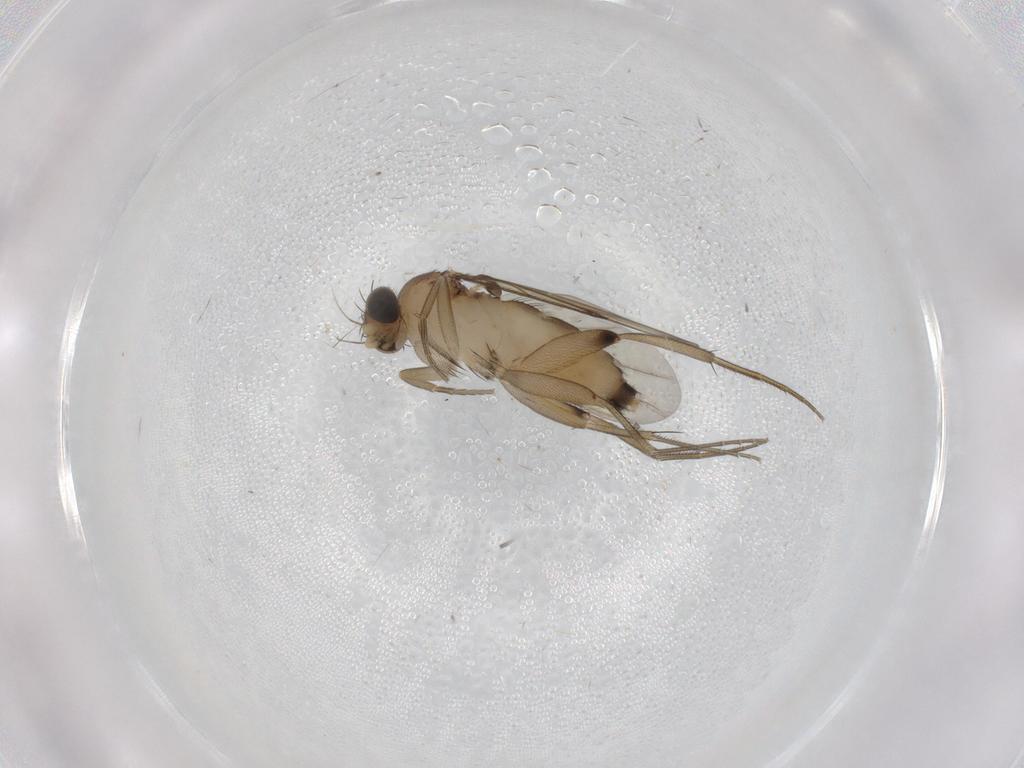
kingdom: Animalia
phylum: Arthropoda
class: Insecta
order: Diptera
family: Phoridae
